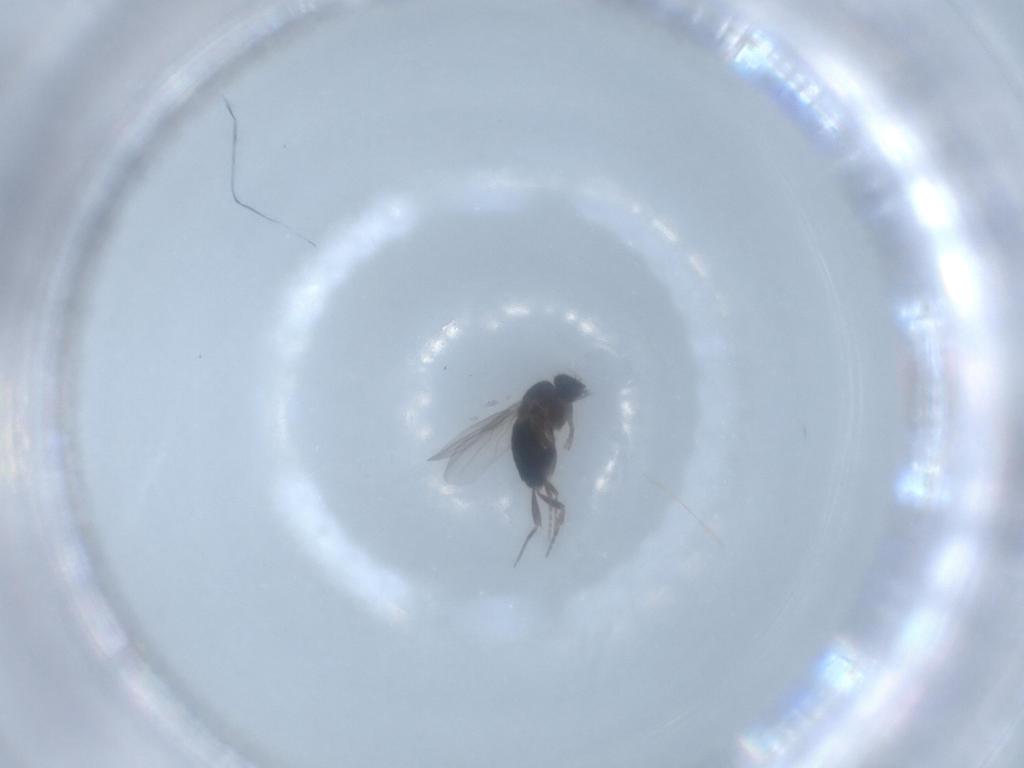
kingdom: Animalia
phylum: Arthropoda
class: Insecta
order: Diptera
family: Phoridae
